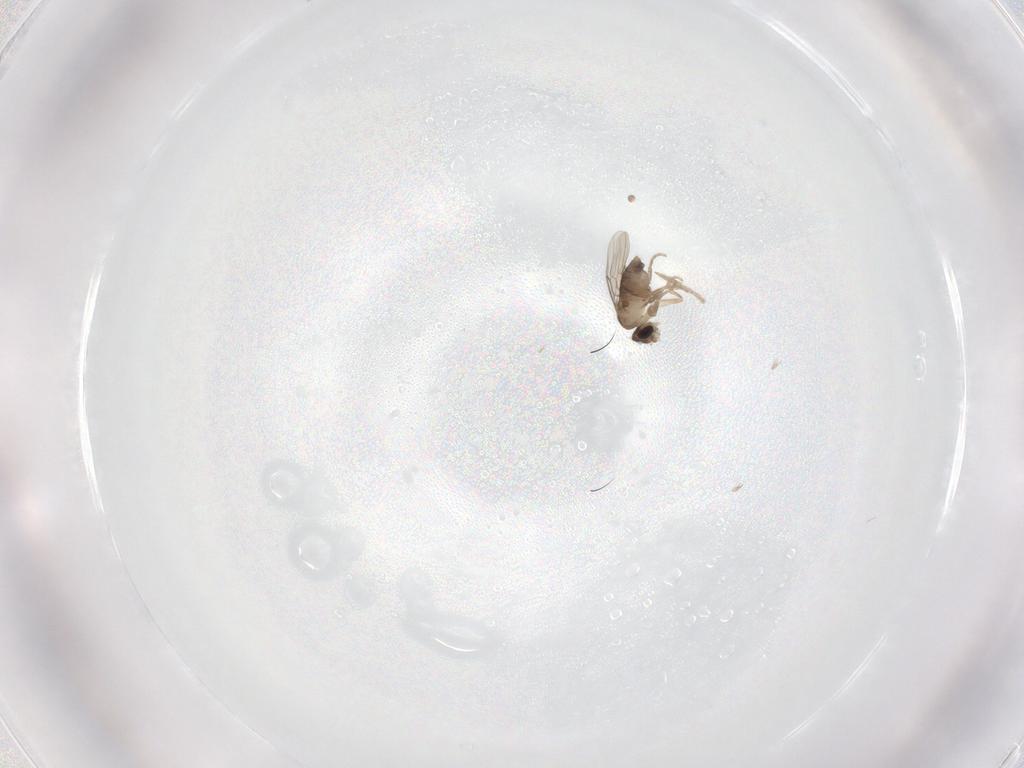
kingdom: Animalia
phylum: Arthropoda
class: Insecta
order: Diptera
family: Chironomidae
